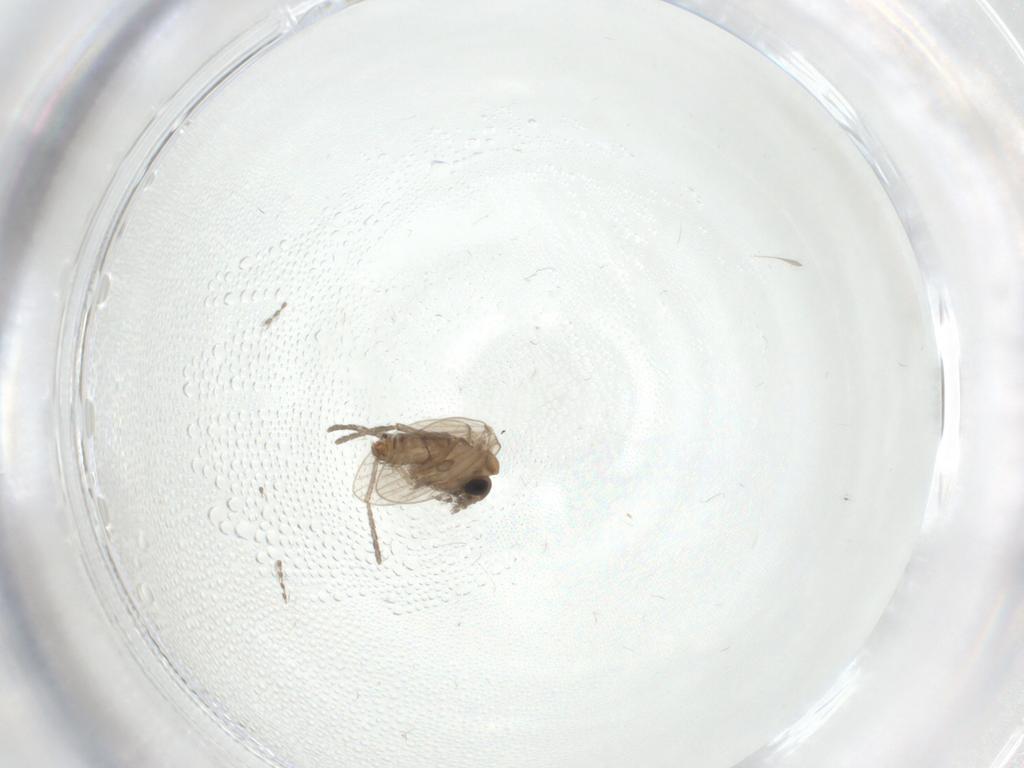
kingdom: Animalia
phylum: Arthropoda
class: Insecta
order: Diptera
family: Psychodidae
